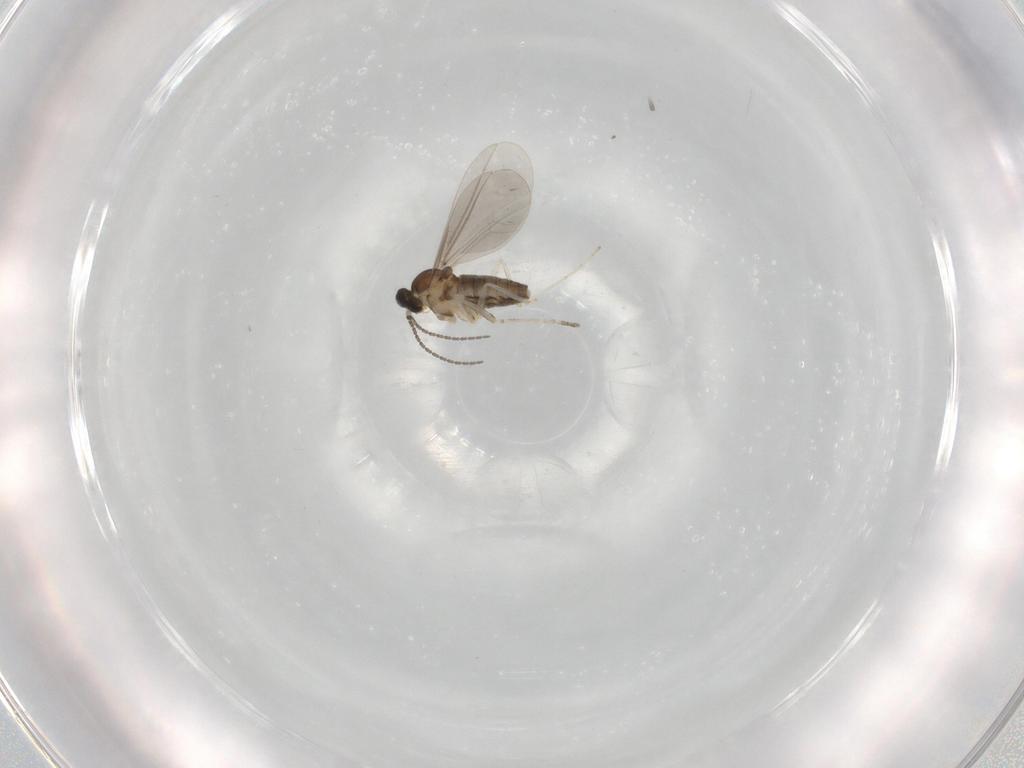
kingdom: Animalia
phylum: Arthropoda
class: Insecta
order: Diptera
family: Cecidomyiidae
